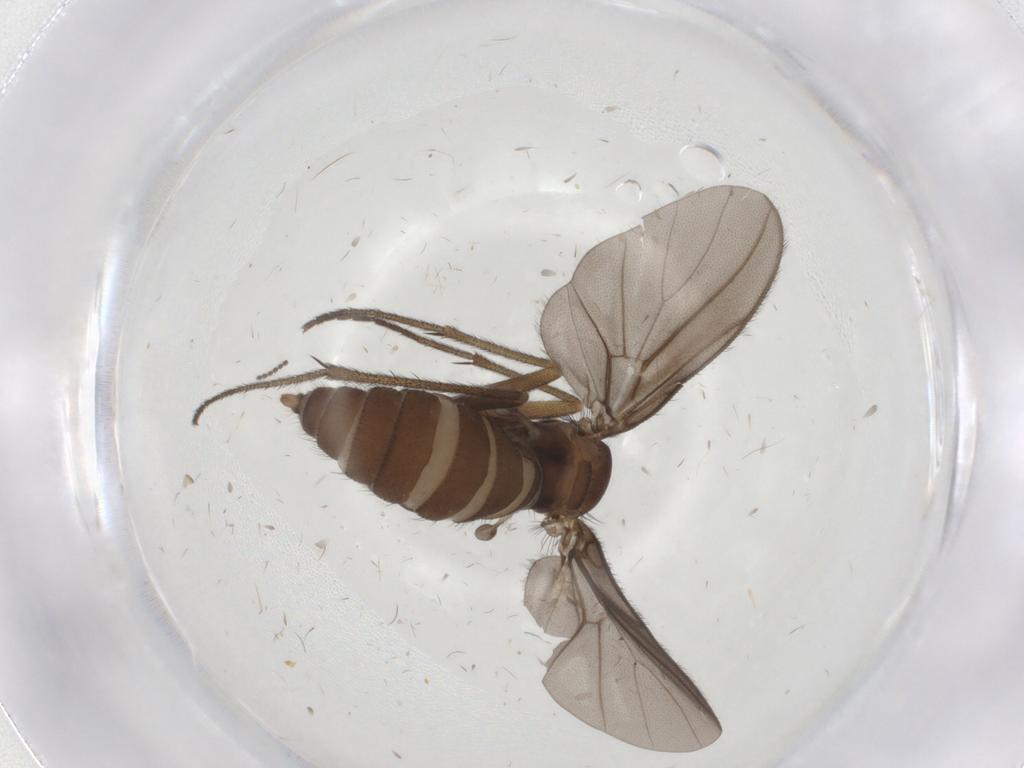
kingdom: Animalia
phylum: Arthropoda
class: Insecta
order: Diptera
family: Diadocidiidae
